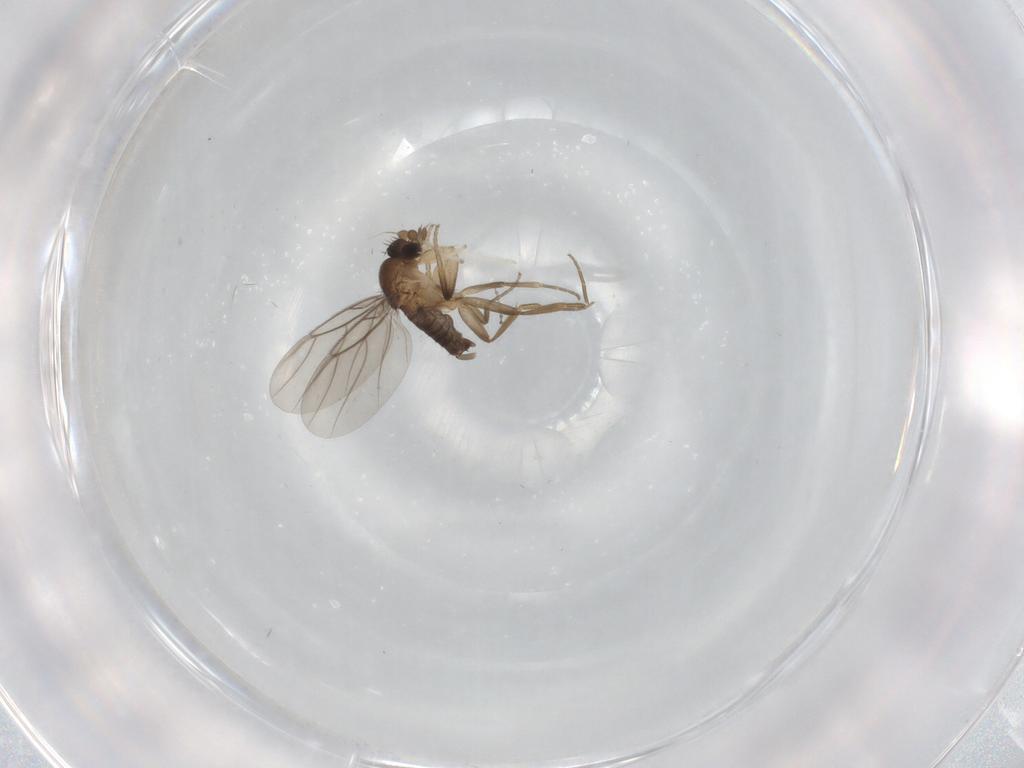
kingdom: Animalia
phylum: Arthropoda
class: Insecta
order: Diptera
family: Phoridae
